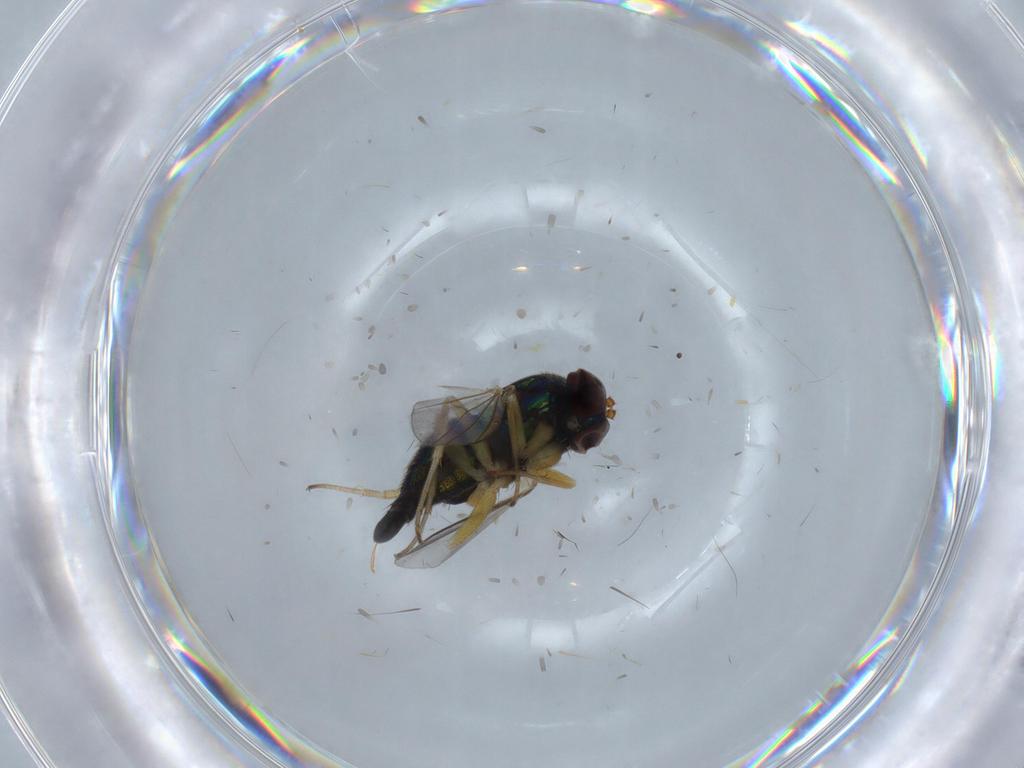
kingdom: Animalia
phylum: Arthropoda
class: Insecta
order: Diptera
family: Dolichopodidae
